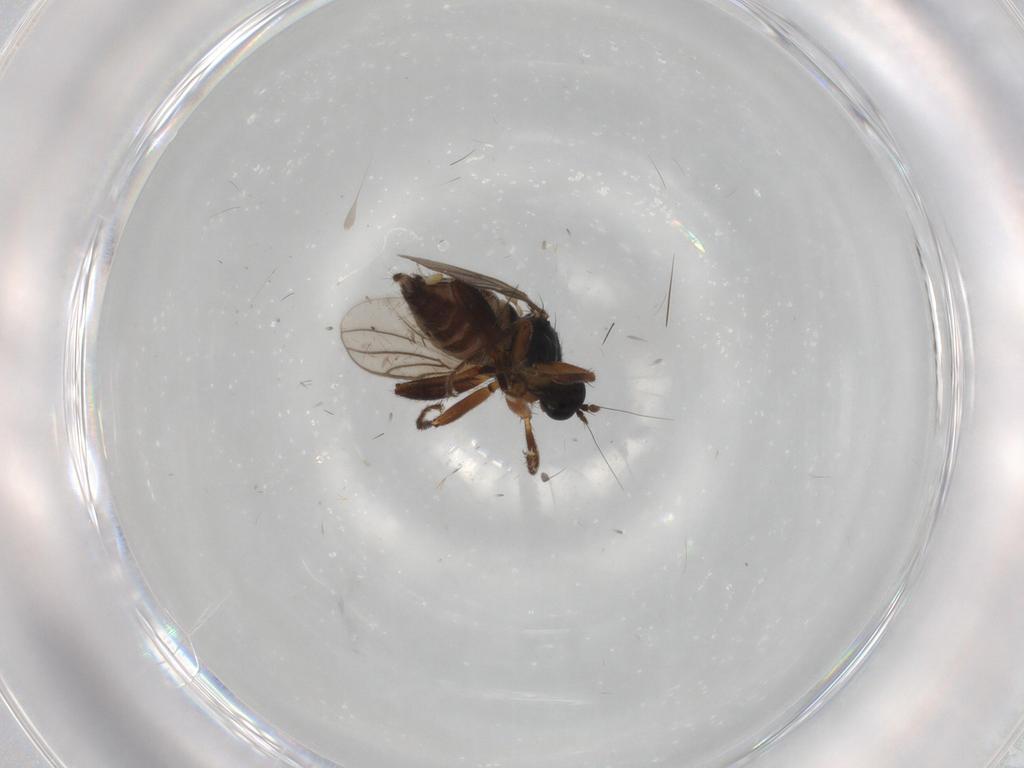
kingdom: Animalia
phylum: Arthropoda
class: Insecta
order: Diptera
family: Hybotidae
